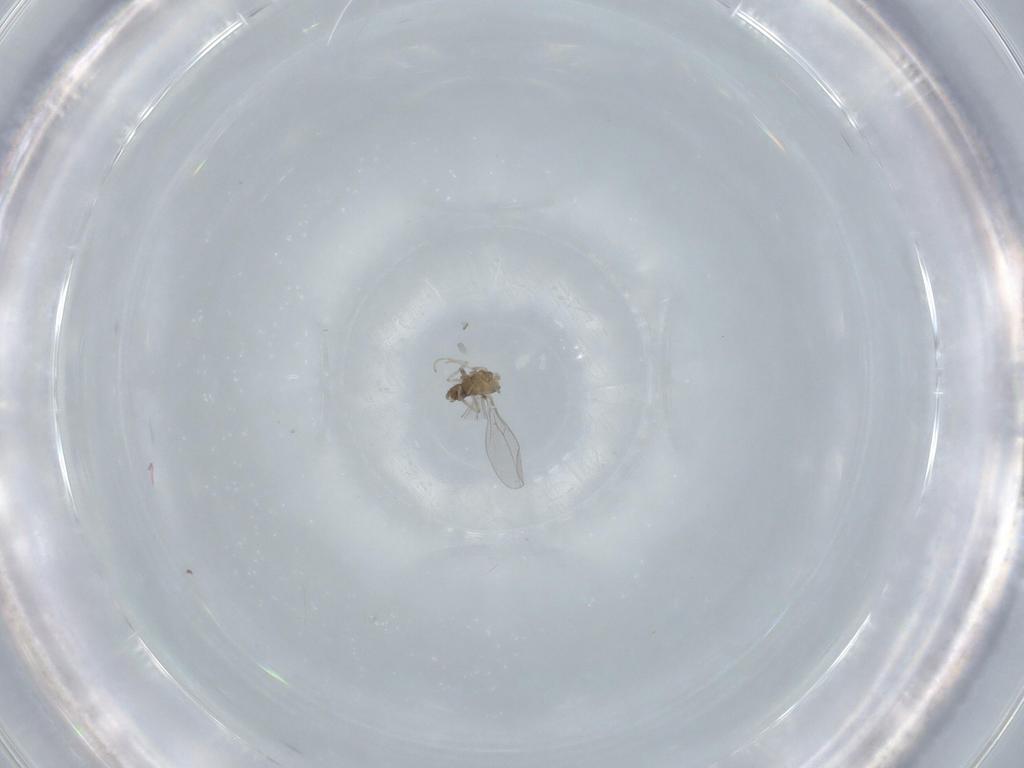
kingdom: Animalia
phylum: Arthropoda
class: Insecta
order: Diptera
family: Cecidomyiidae
